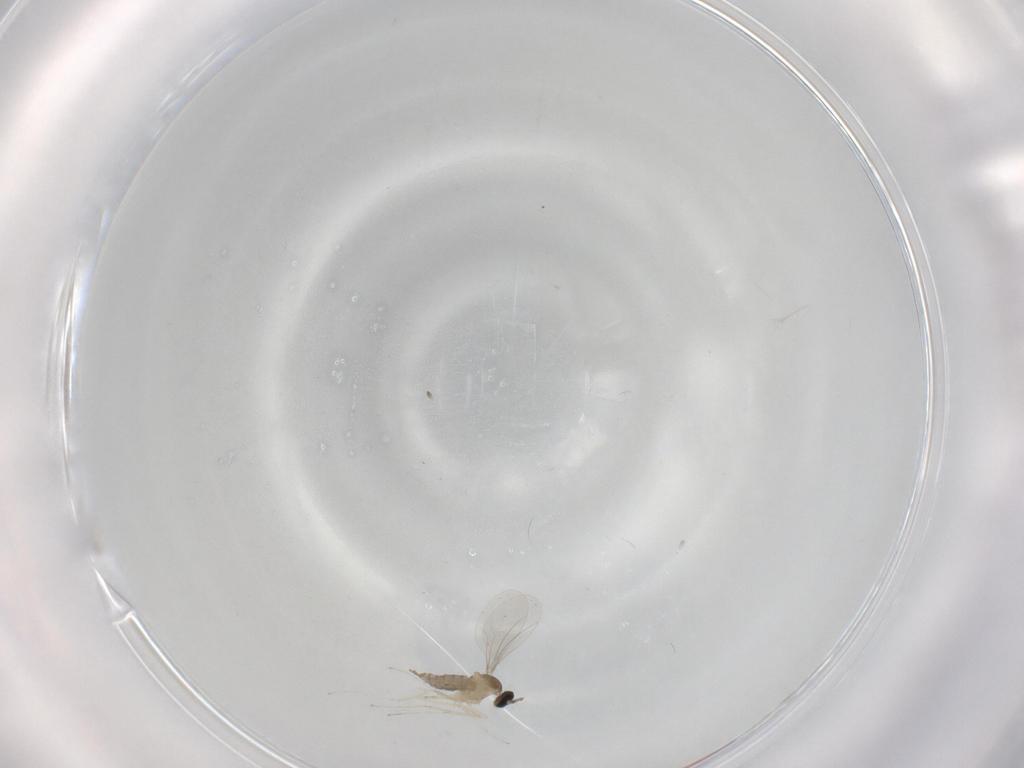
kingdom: Animalia
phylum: Arthropoda
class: Insecta
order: Diptera
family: Cecidomyiidae
